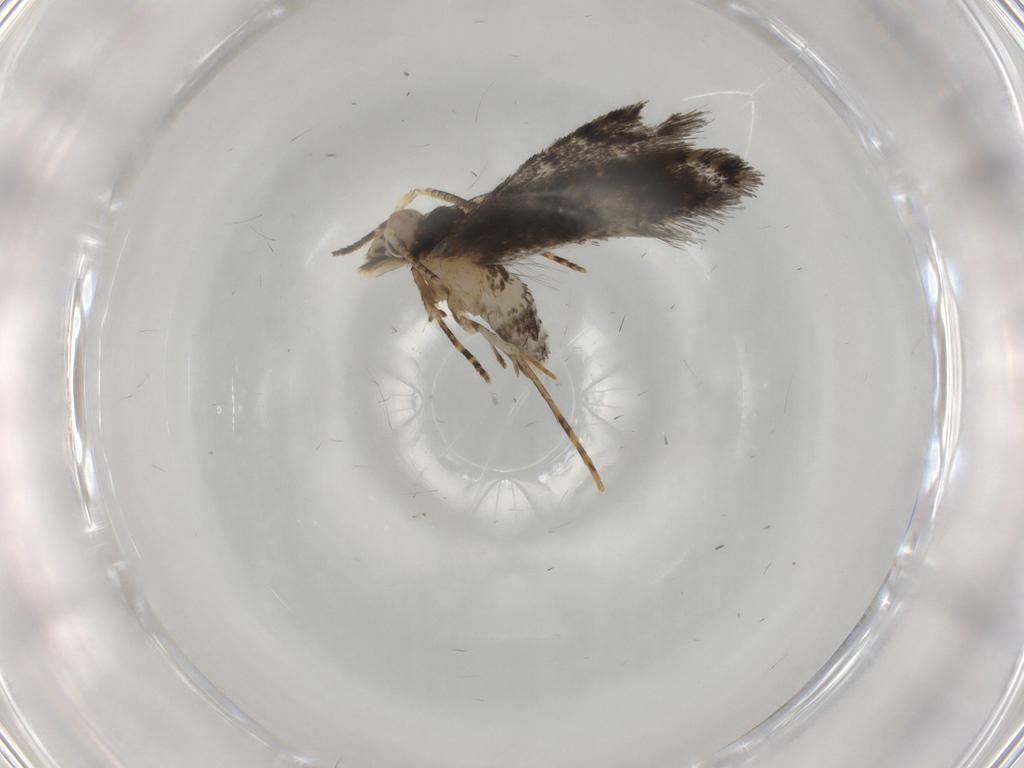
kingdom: Animalia
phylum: Arthropoda
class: Insecta
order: Lepidoptera
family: Tineidae
